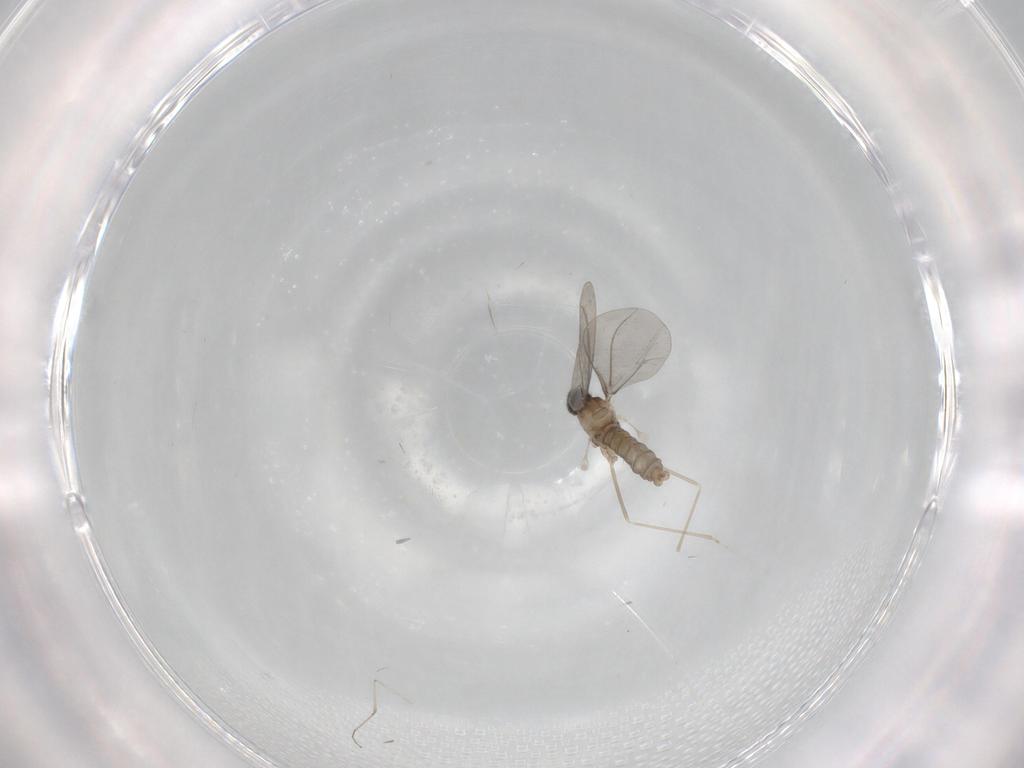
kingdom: Animalia
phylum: Arthropoda
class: Insecta
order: Diptera
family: Cecidomyiidae
